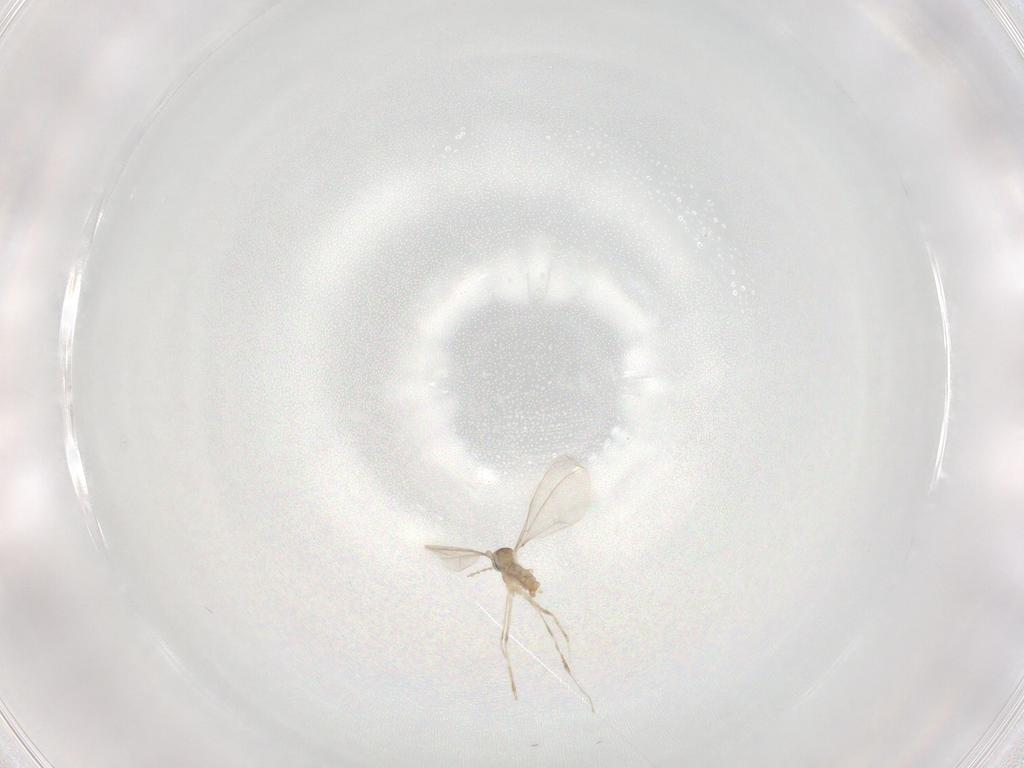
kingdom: Animalia
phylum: Arthropoda
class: Insecta
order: Diptera
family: Cecidomyiidae
